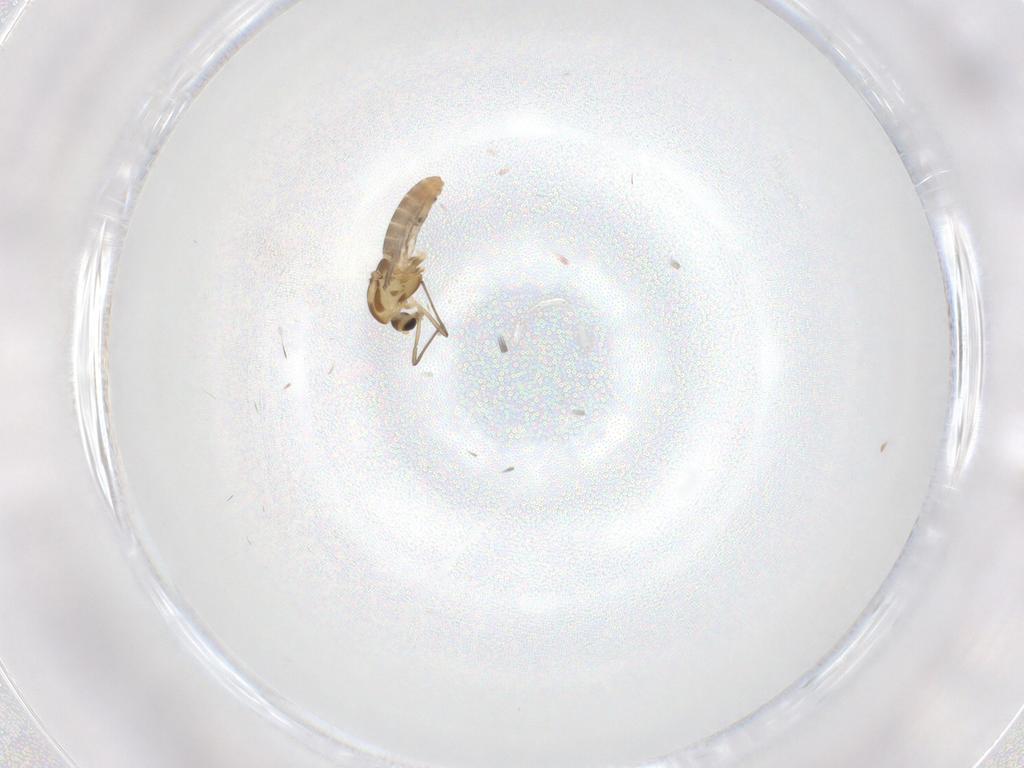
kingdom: Animalia
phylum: Arthropoda
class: Insecta
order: Diptera
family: Chironomidae
